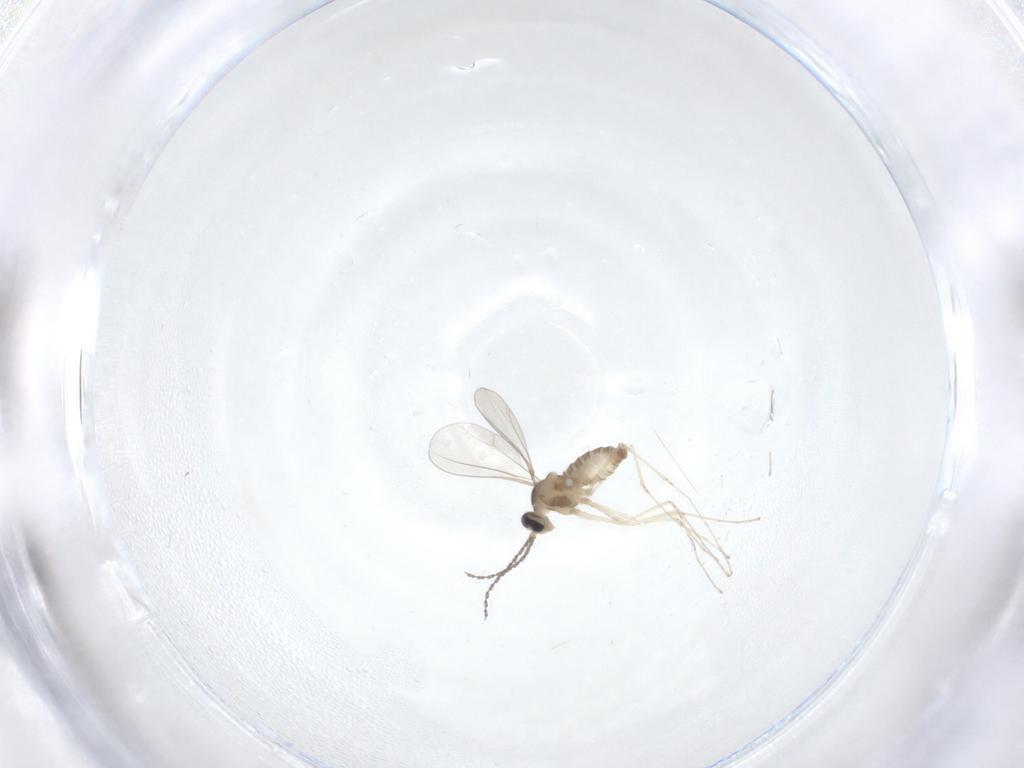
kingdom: Animalia
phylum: Arthropoda
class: Insecta
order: Diptera
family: Cecidomyiidae
